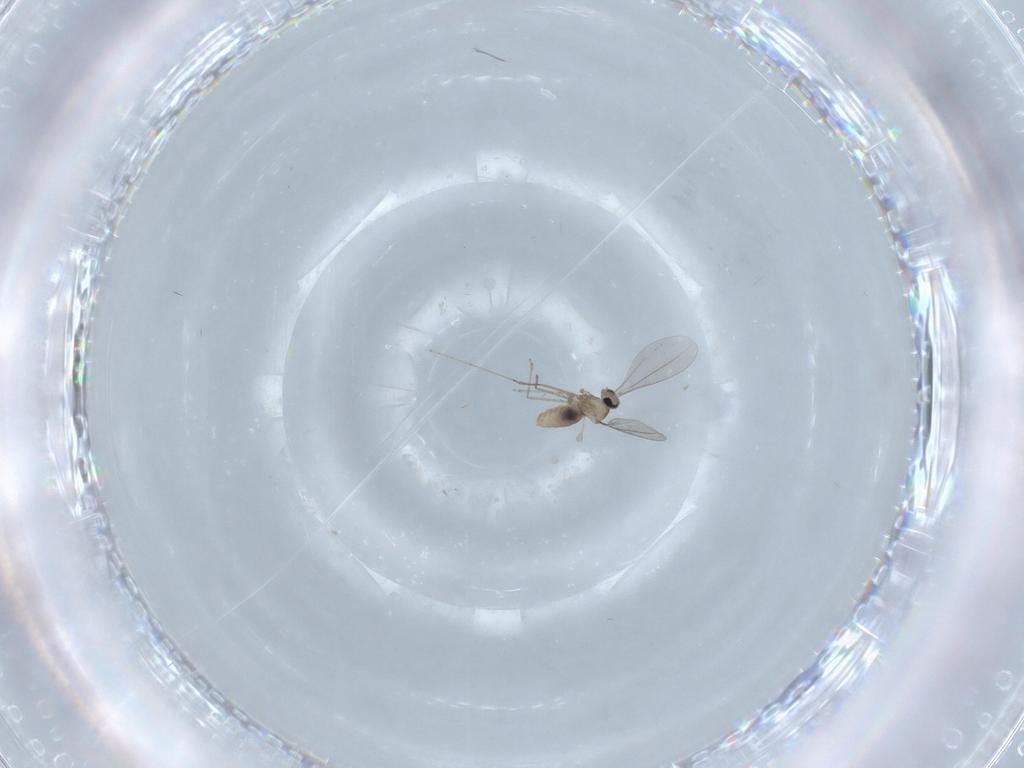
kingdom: Animalia
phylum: Arthropoda
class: Insecta
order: Diptera
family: Cecidomyiidae
